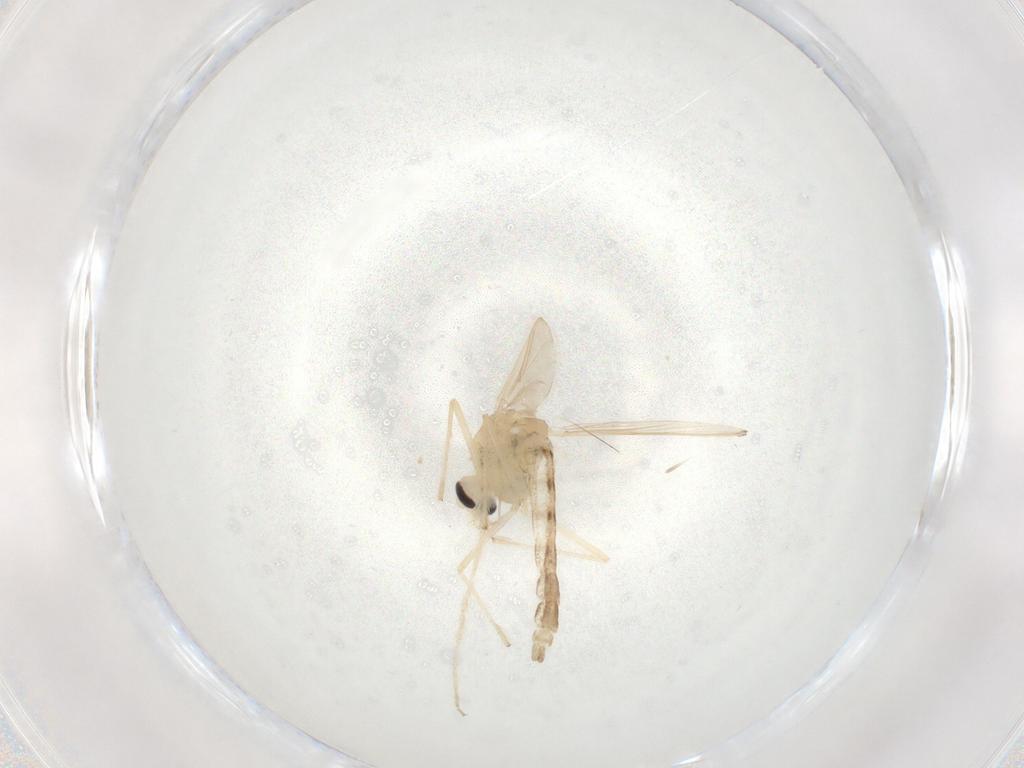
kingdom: Animalia
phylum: Arthropoda
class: Insecta
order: Diptera
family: Chironomidae
